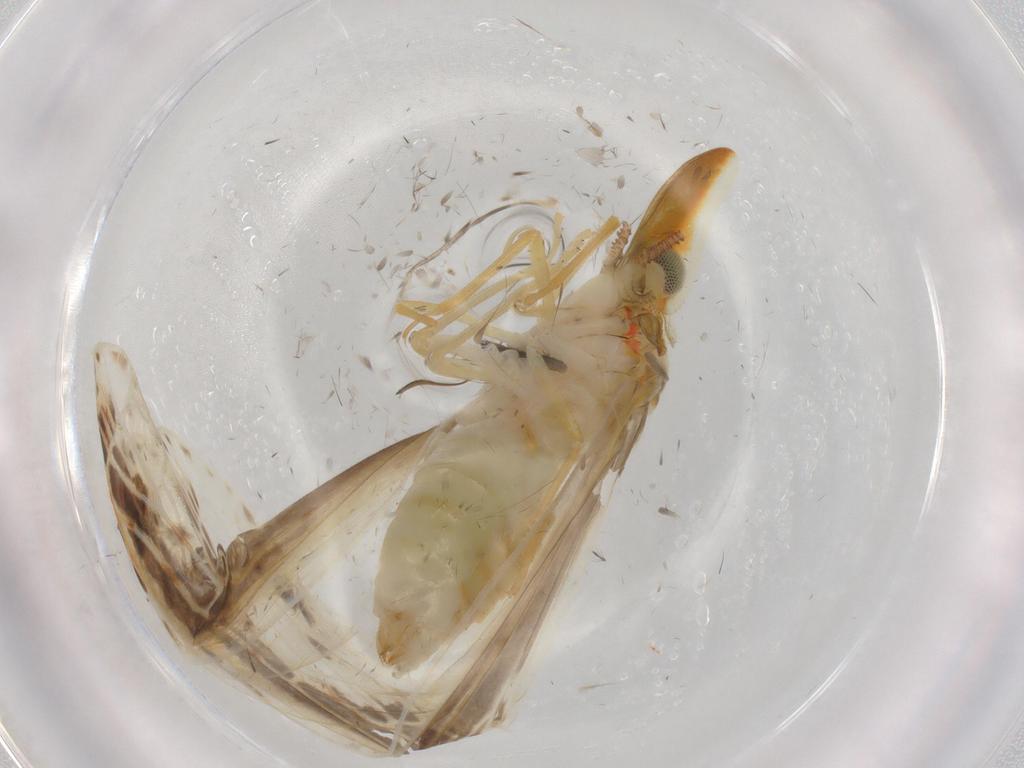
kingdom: Animalia
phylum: Arthropoda
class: Insecta
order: Hemiptera
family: Derbidae
